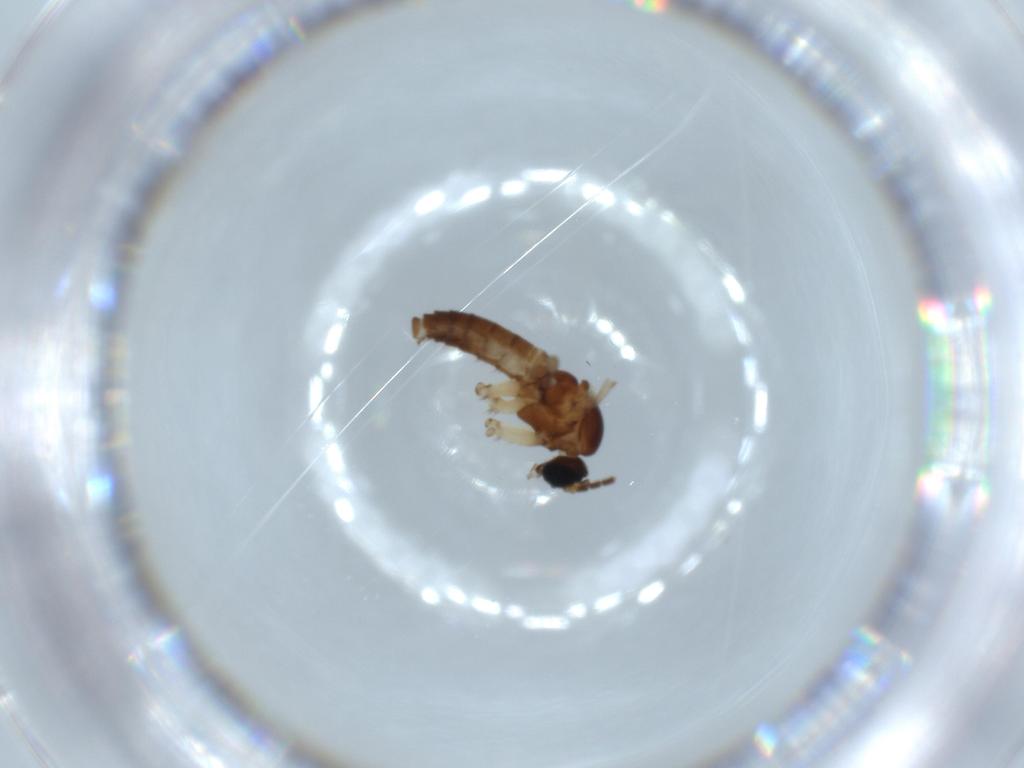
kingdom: Animalia
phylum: Arthropoda
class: Insecta
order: Diptera
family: Sciaridae
